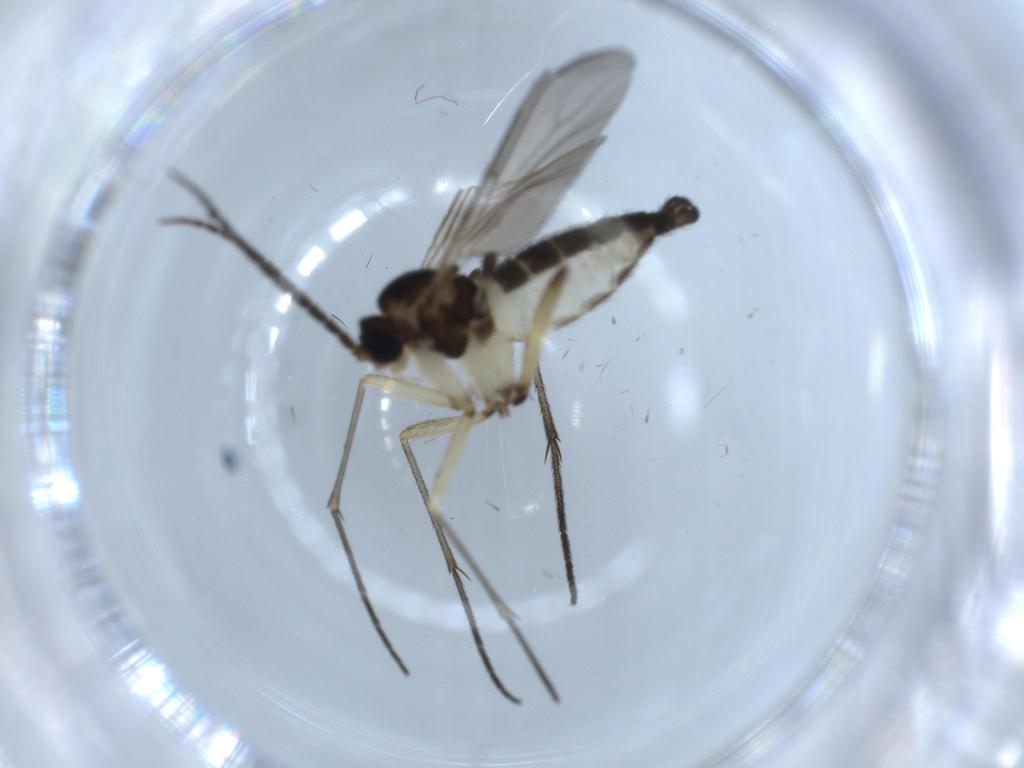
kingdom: Animalia
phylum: Arthropoda
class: Insecta
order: Diptera
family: Sciaridae
